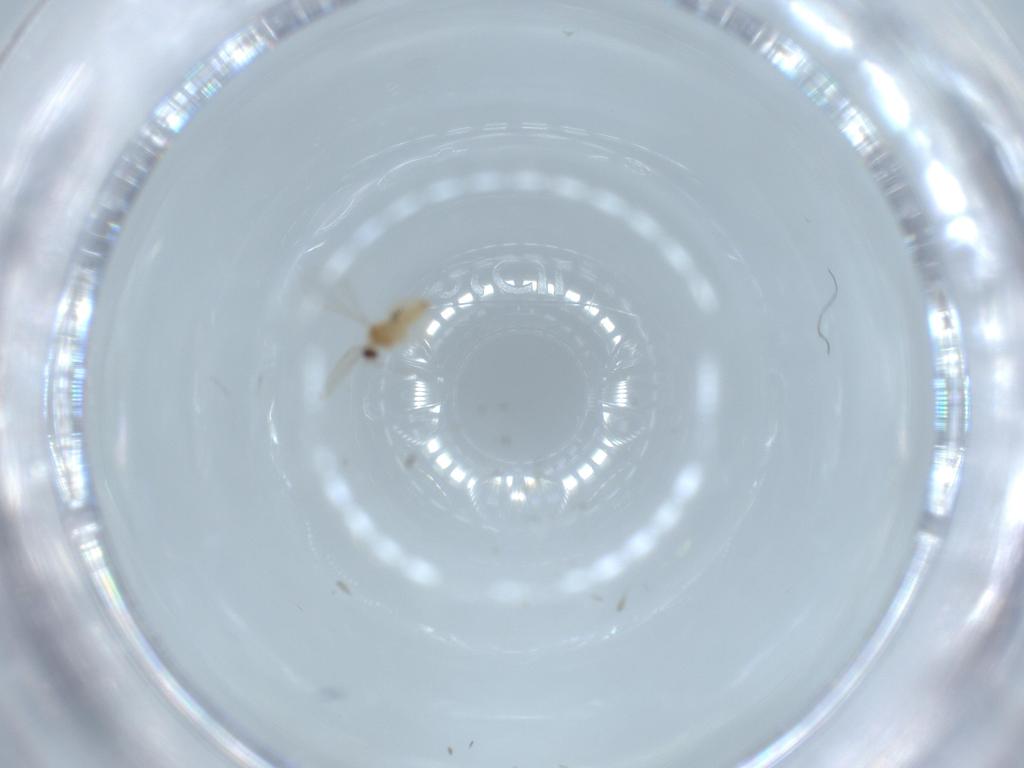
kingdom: Animalia
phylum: Arthropoda
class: Insecta
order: Diptera
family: Cecidomyiidae
